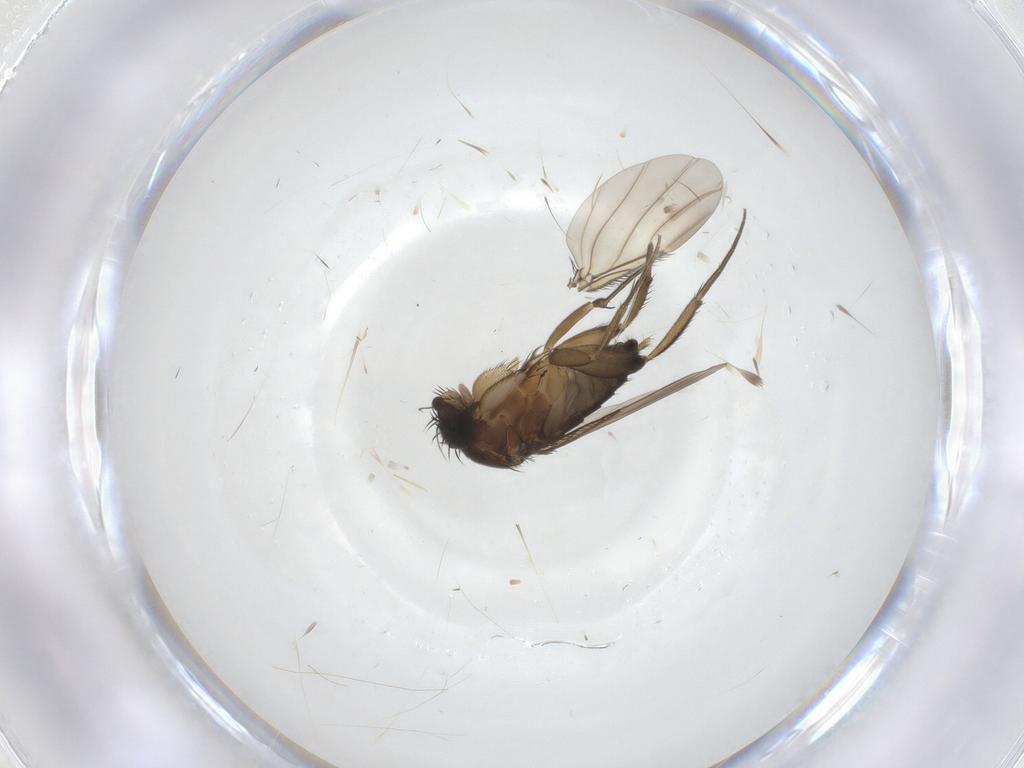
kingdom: Animalia
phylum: Arthropoda
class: Insecta
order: Diptera
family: Phoridae
